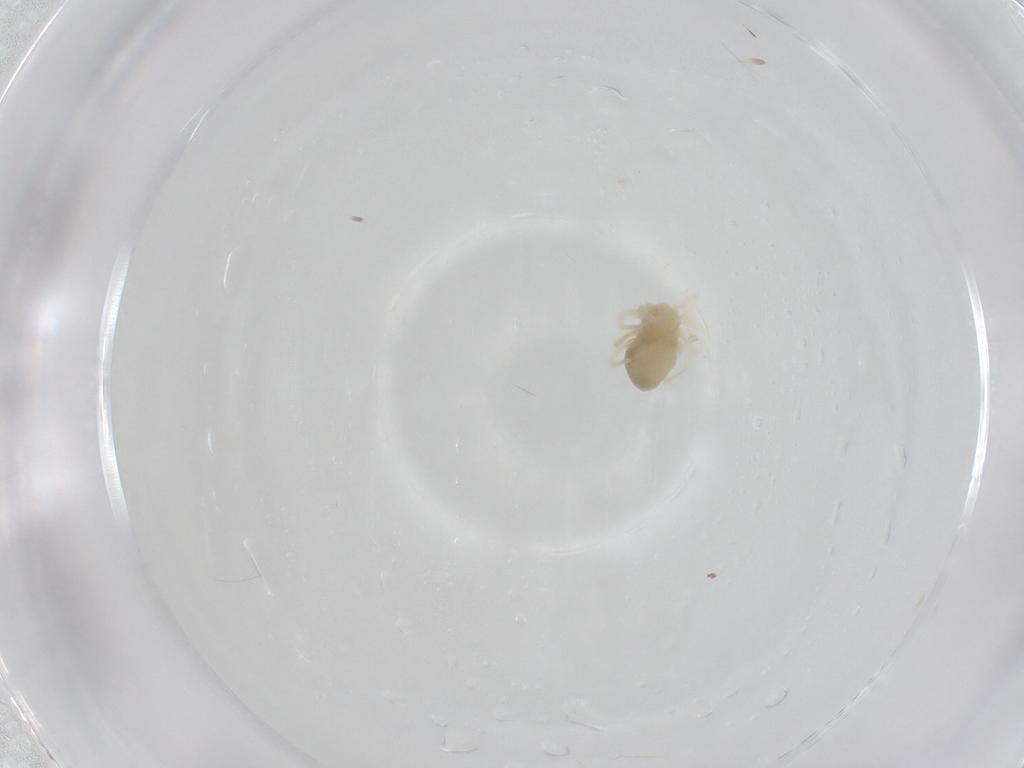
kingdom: Animalia
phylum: Arthropoda
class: Arachnida
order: Trombidiformes
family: Anystidae
